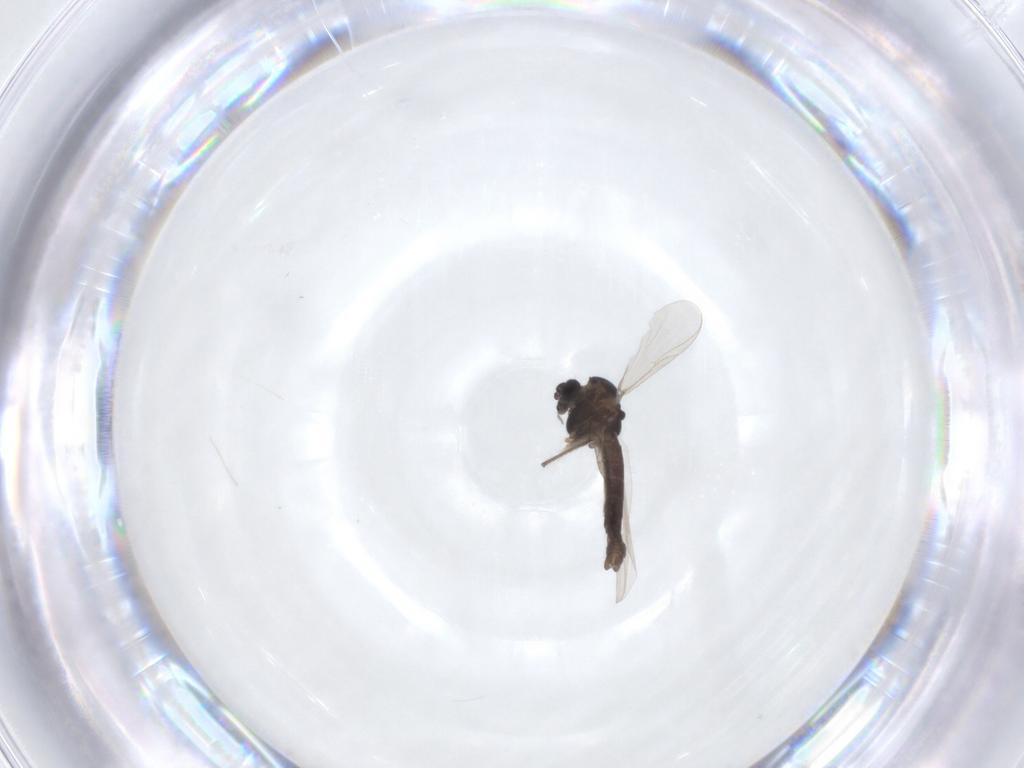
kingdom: Animalia
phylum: Arthropoda
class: Insecta
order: Diptera
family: Chironomidae
